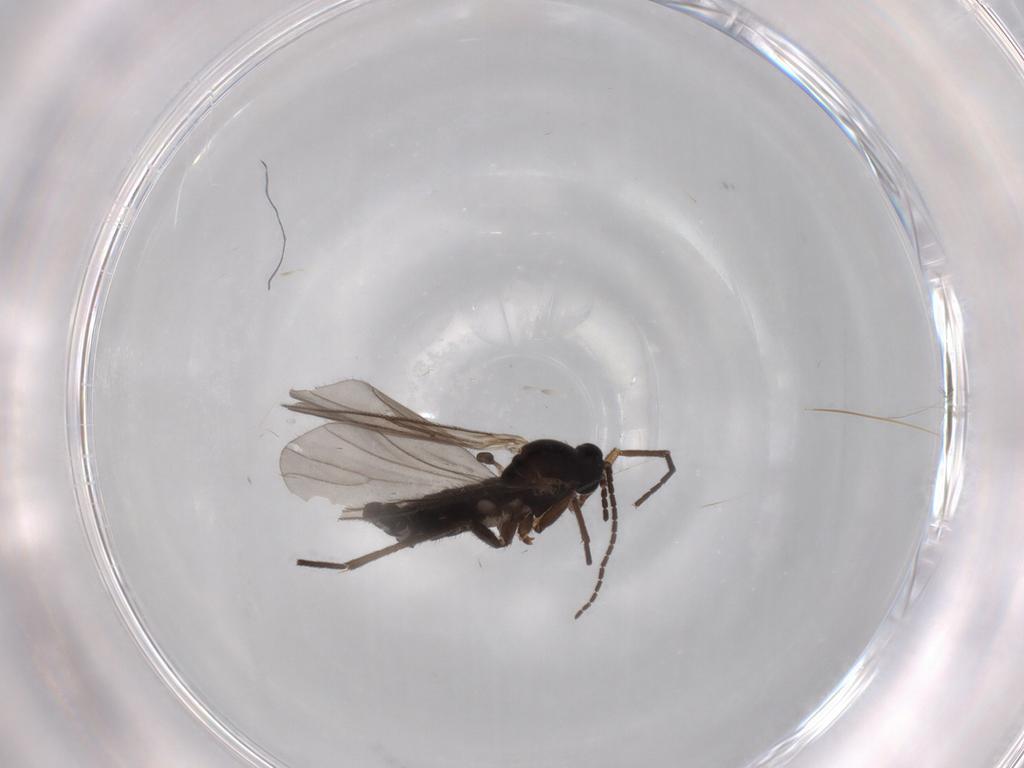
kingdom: Animalia
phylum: Arthropoda
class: Insecta
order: Diptera
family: Sciaridae
